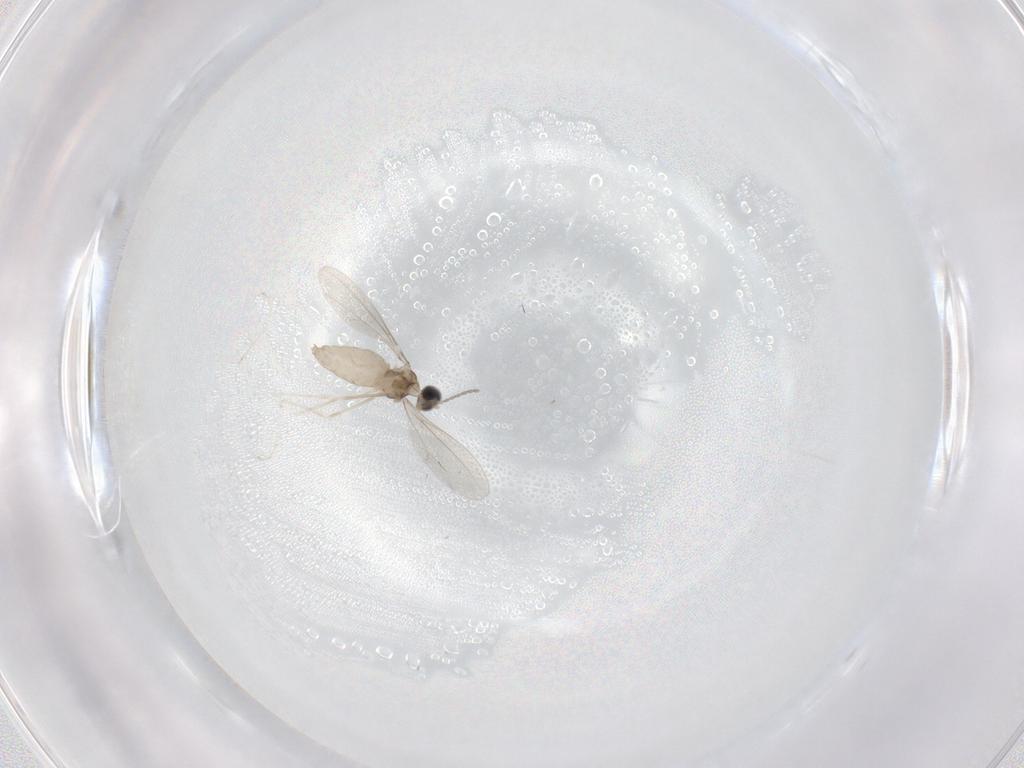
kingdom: Animalia
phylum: Arthropoda
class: Insecta
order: Diptera
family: Cecidomyiidae
